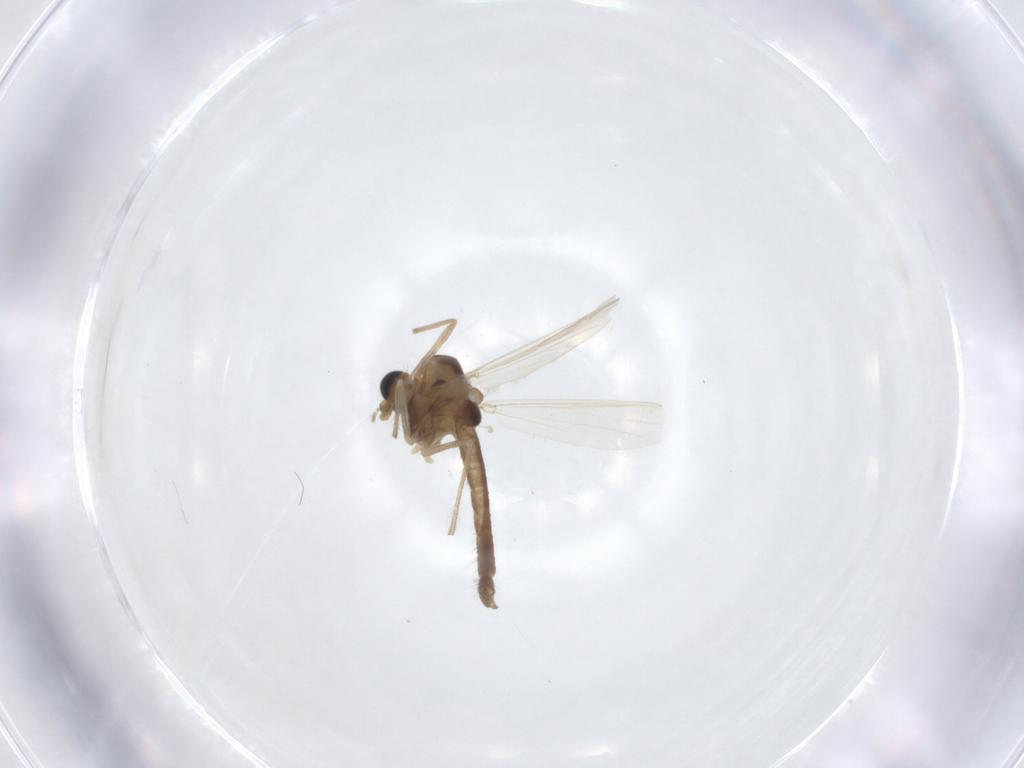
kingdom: Animalia
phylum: Arthropoda
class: Insecta
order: Diptera
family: Chironomidae
